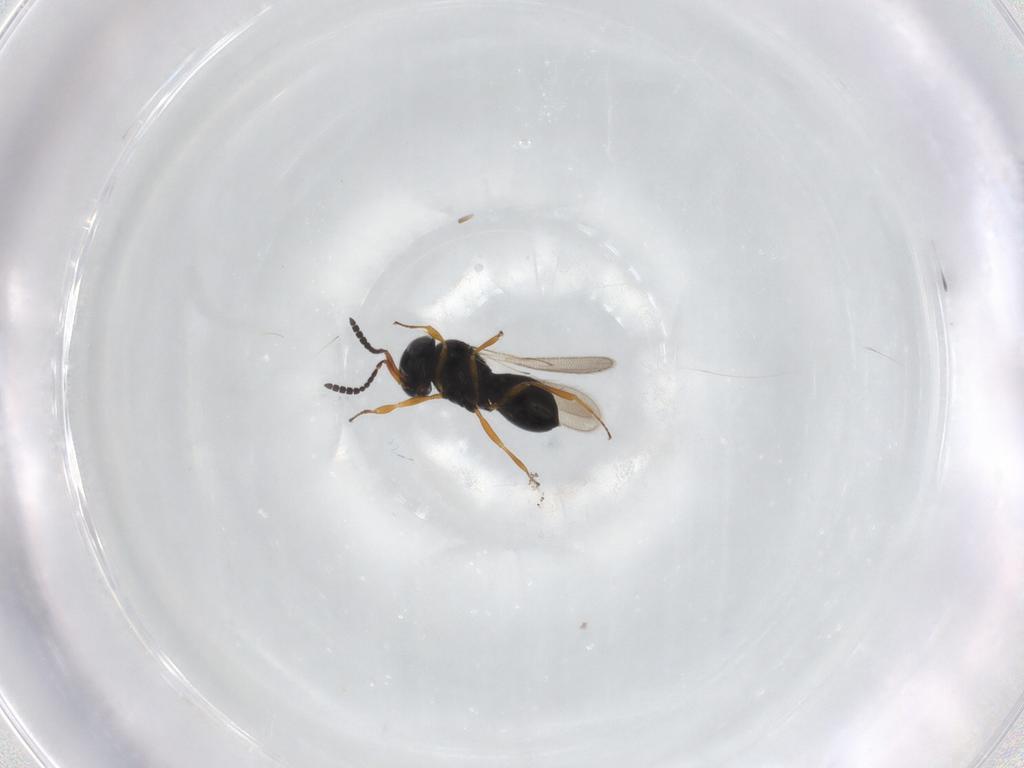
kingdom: Animalia
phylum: Arthropoda
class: Insecta
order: Hymenoptera
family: Scelionidae
